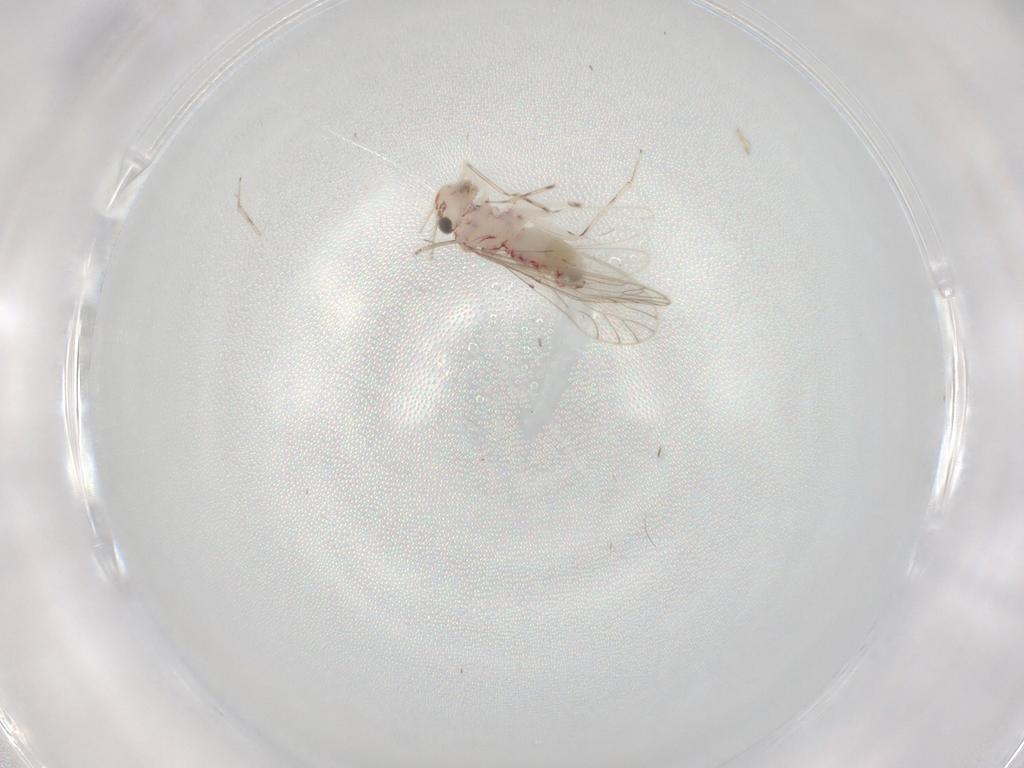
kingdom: Animalia
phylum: Arthropoda
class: Insecta
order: Psocodea
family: Caeciliusidae
